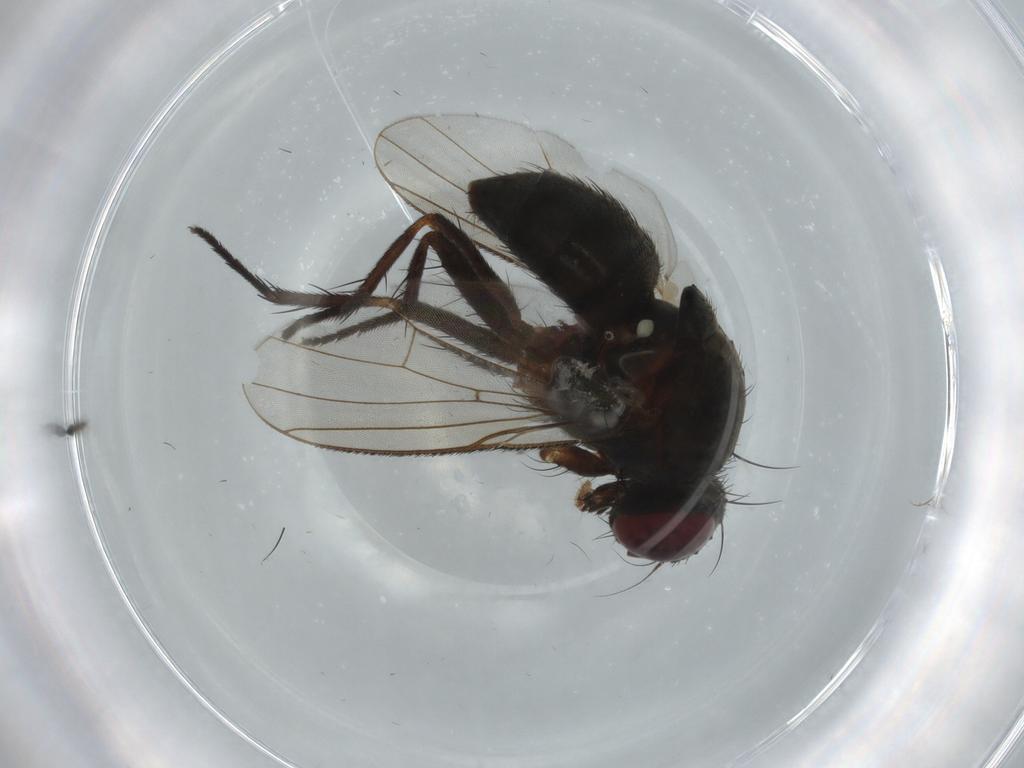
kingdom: Animalia
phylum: Arthropoda
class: Insecta
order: Diptera
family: Muscidae
